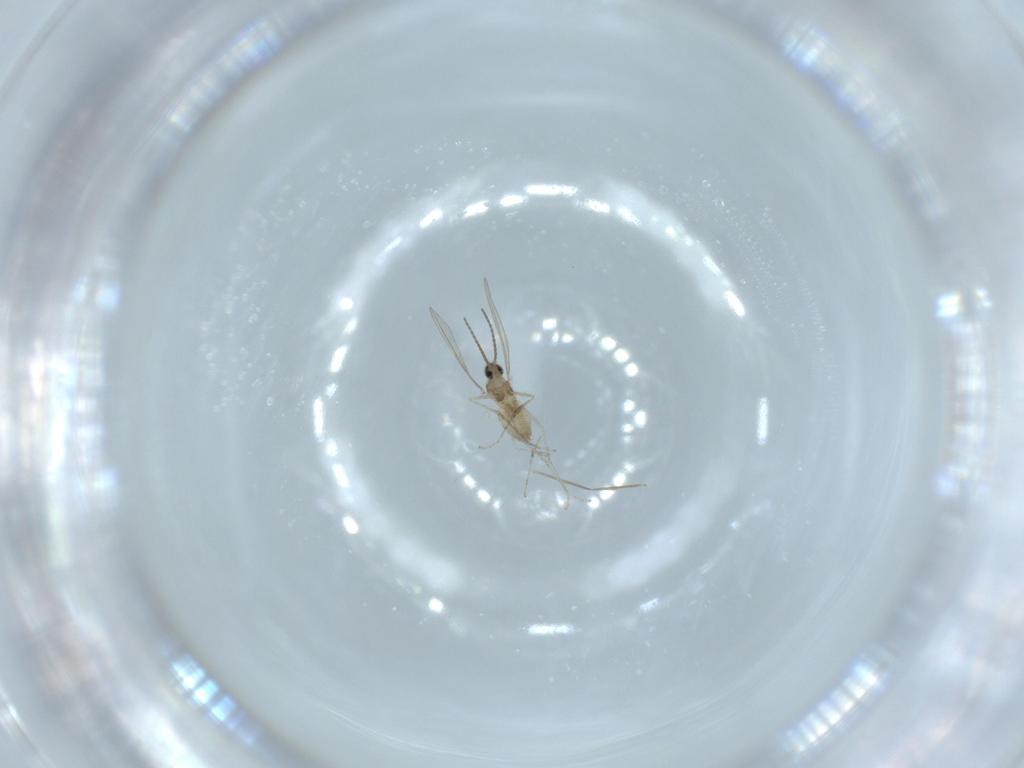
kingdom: Animalia
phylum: Arthropoda
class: Insecta
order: Diptera
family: Cecidomyiidae
